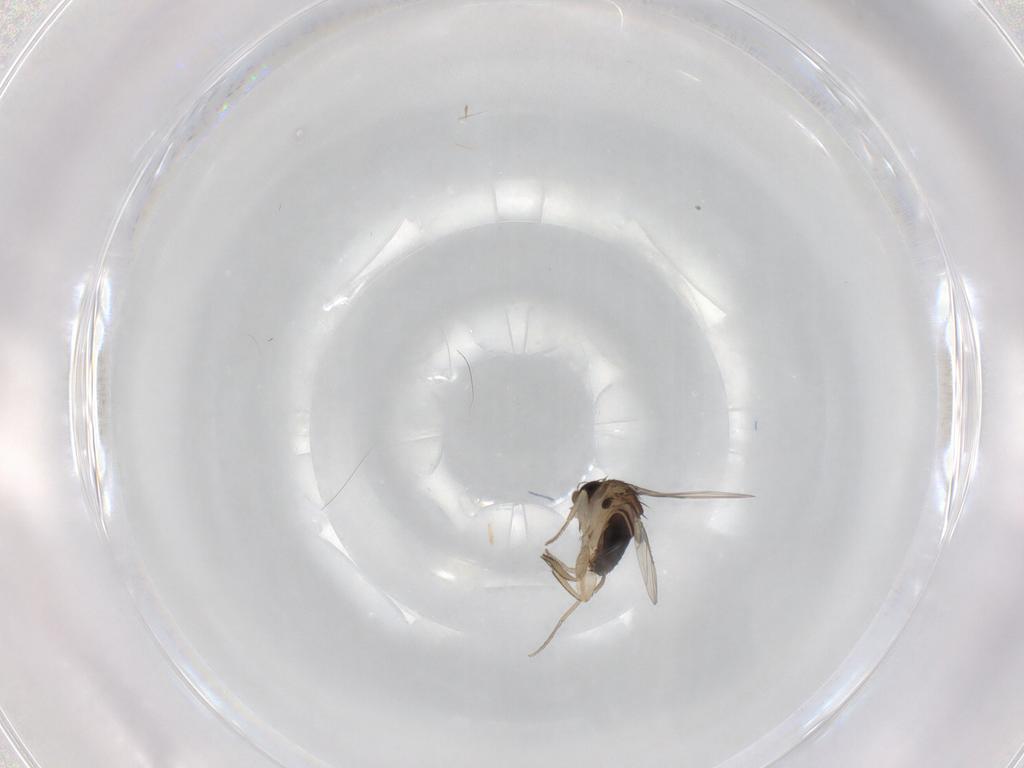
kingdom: Animalia
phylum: Arthropoda
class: Insecta
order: Diptera
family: Phoridae
